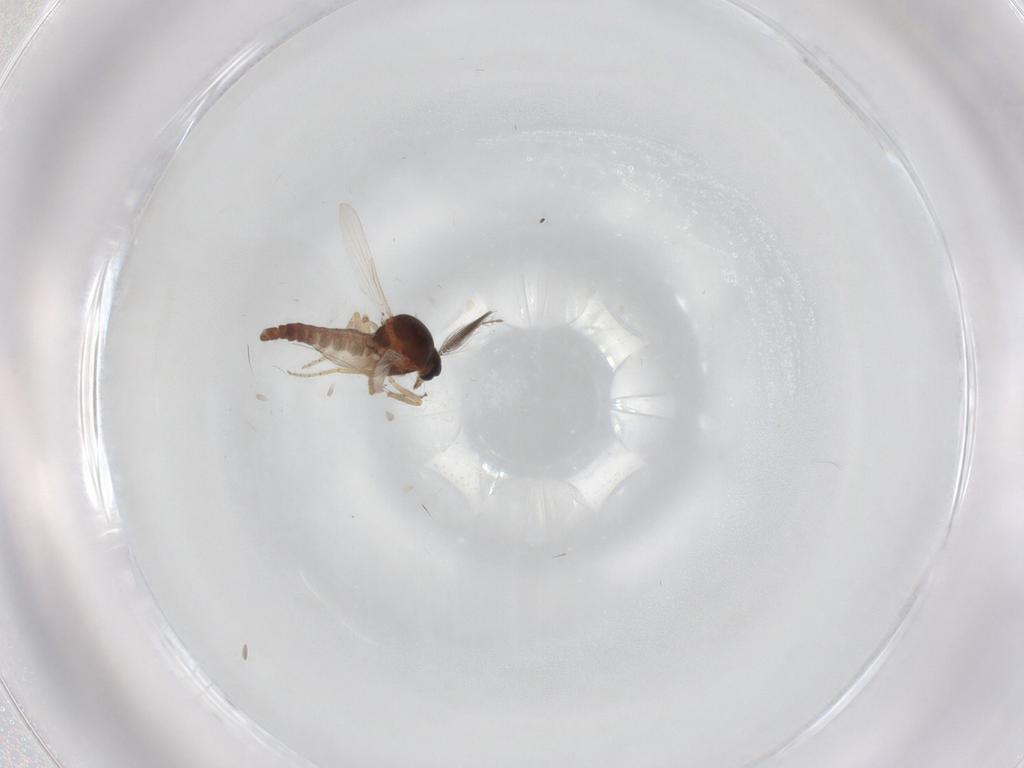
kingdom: Animalia
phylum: Arthropoda
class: Insecta
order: Diptera
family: Ceratopogonidae
